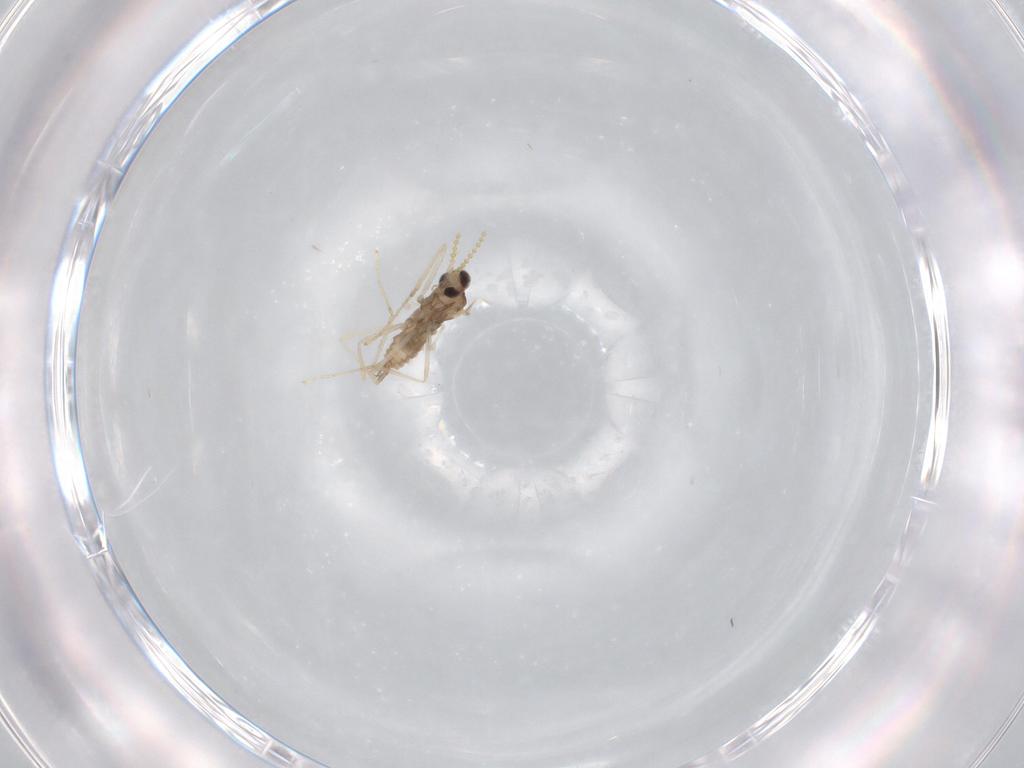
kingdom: Animalia
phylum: Arthropoda
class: Insecta
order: Diptera
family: Cecidomyiidae
